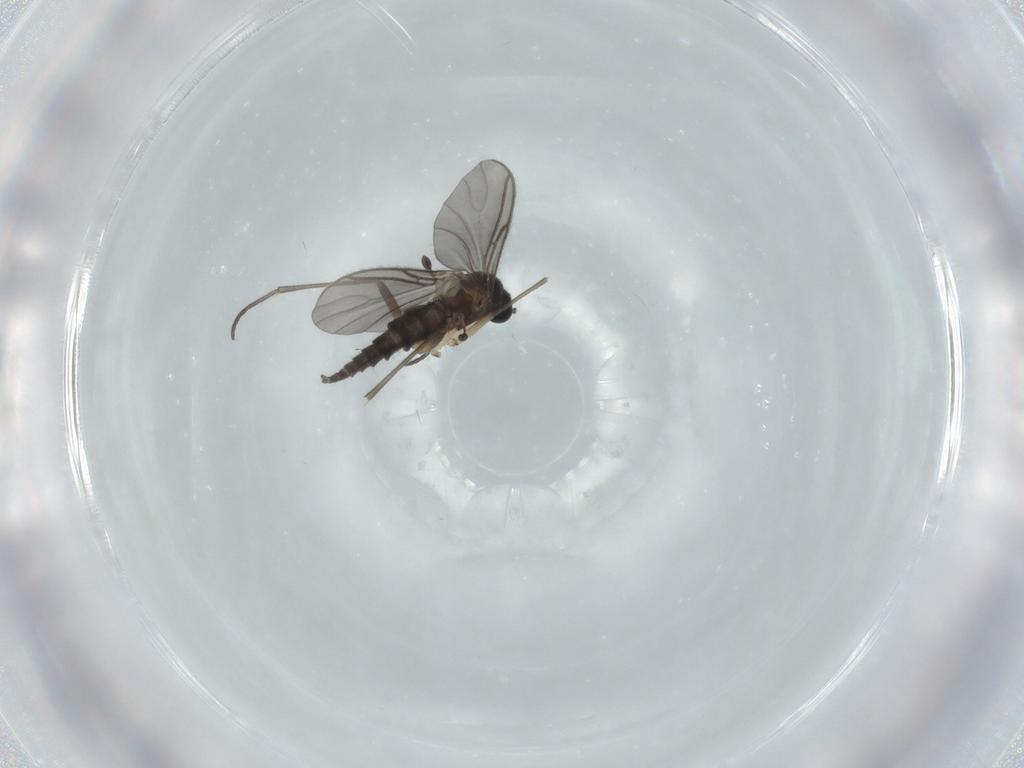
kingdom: Animalia
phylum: Arthropoda
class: Insecta
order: Diptera
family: Sciaridae
